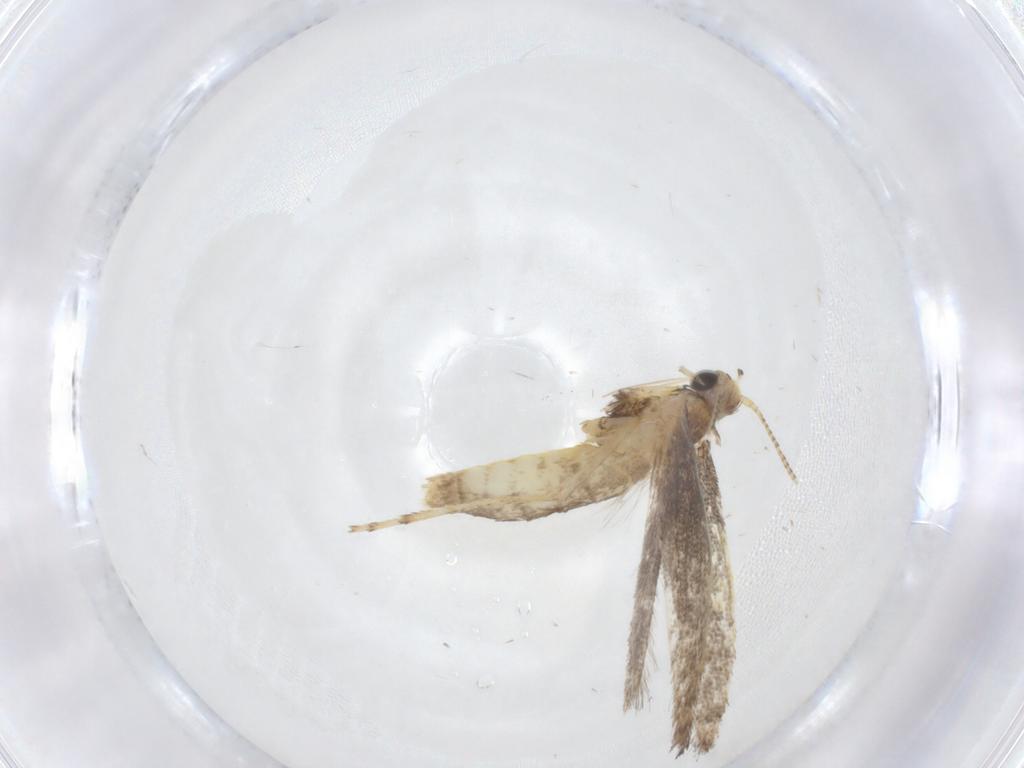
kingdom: Animalia
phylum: Arthropoda
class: Insecta
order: Lepidoptera
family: Gracillariidae
